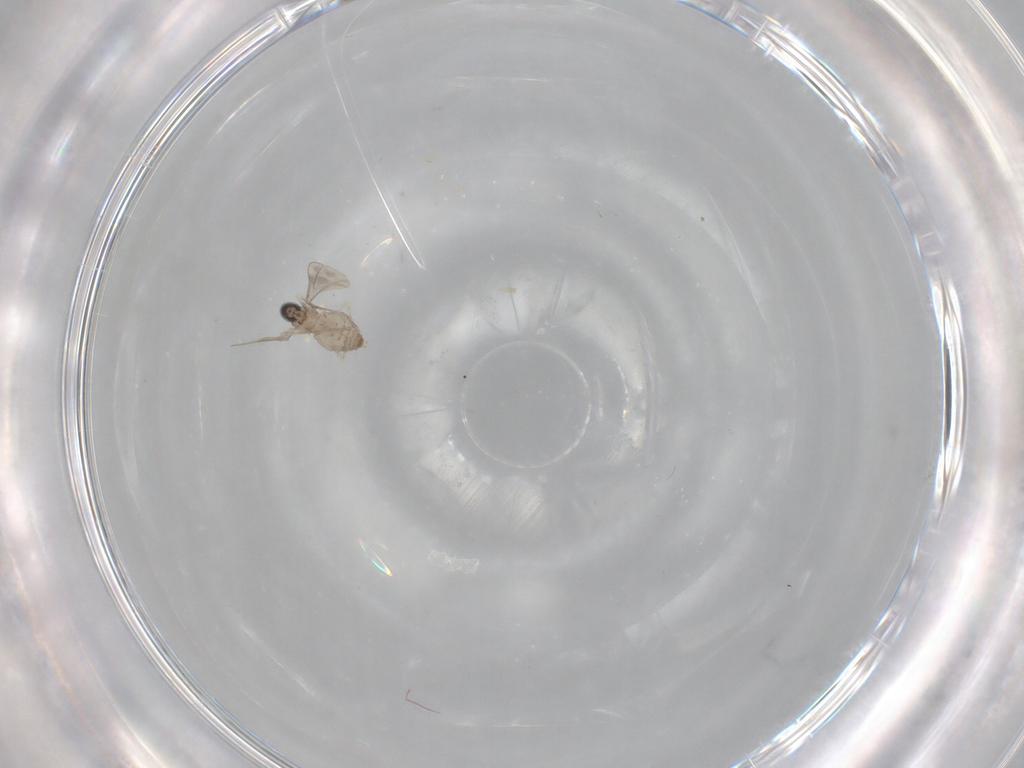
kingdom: Animalia
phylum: Arthropoda
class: Insecta
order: Diptera
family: Cecidomyiidae
